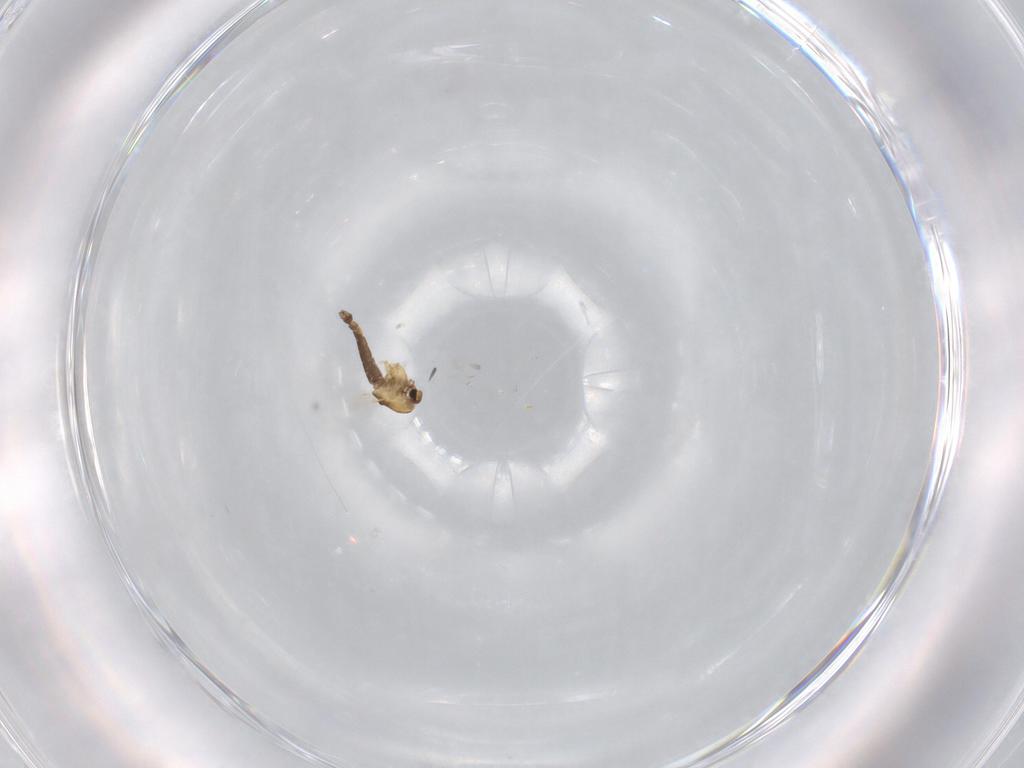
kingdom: Animalia
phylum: Arthropoda
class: Insecta
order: Diptera
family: Chironomidae
